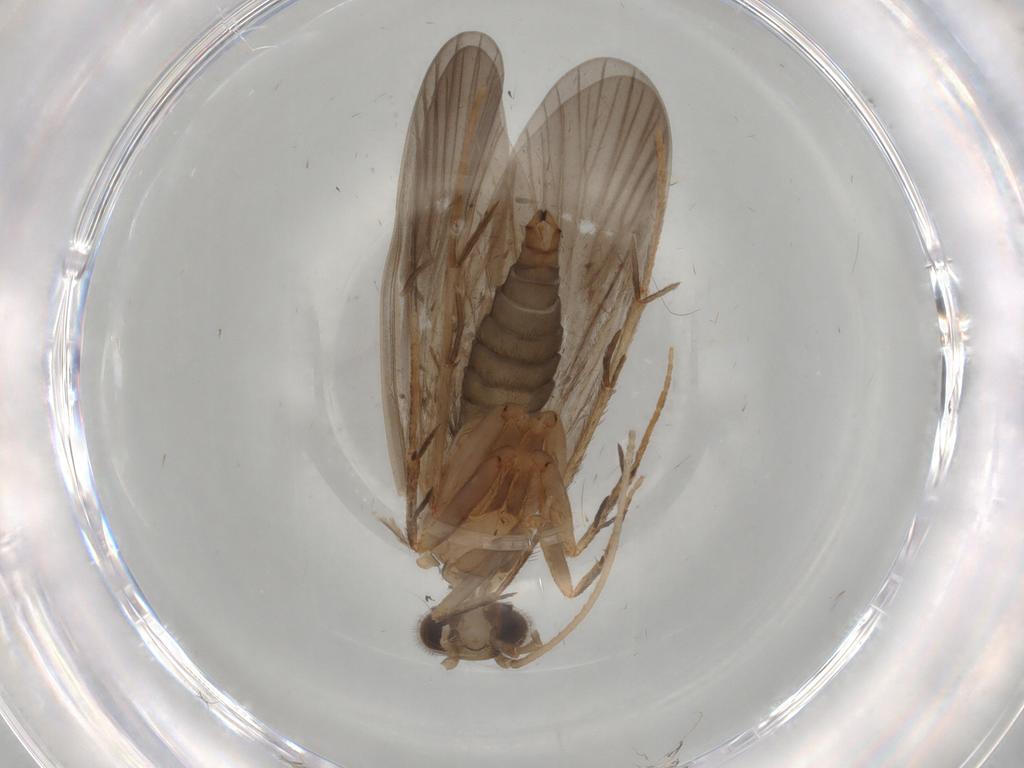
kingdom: Animalia
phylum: Arthropoda
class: Insecta
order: Trichoptera
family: Philopotamidae
